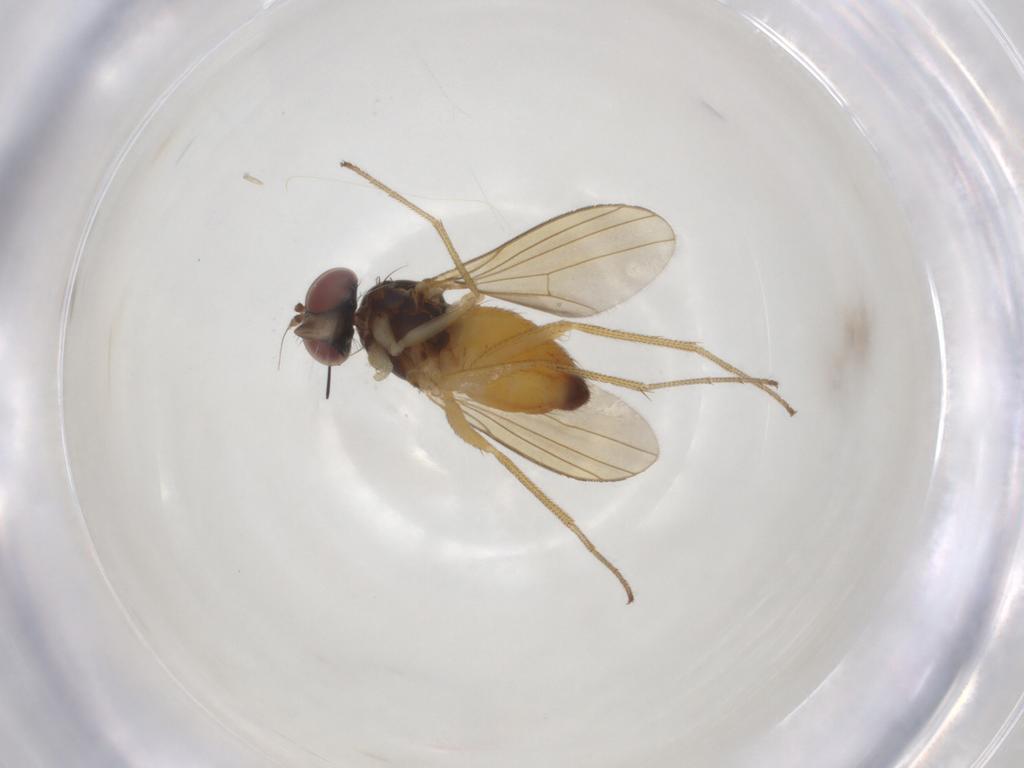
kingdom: Animalia
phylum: Arthropoda
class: Insecta
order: Diptera
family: Dolichopodidae
